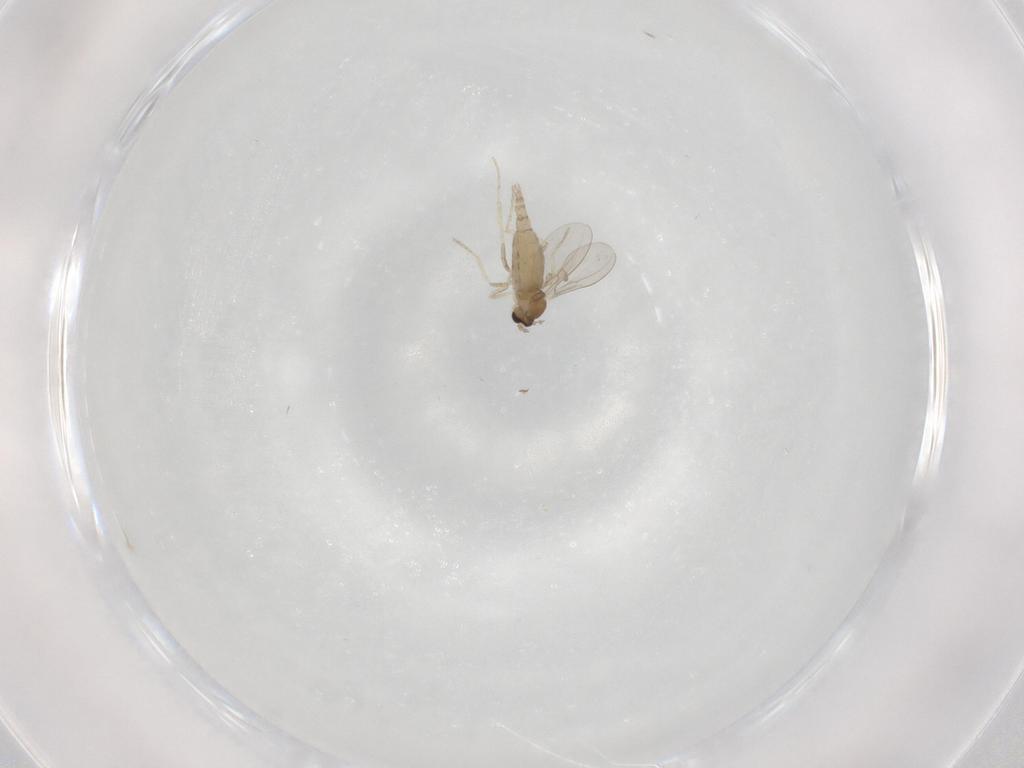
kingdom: Animalia
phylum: Arthropoda
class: Insecta
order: Diptera
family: Cecidomyiidae
